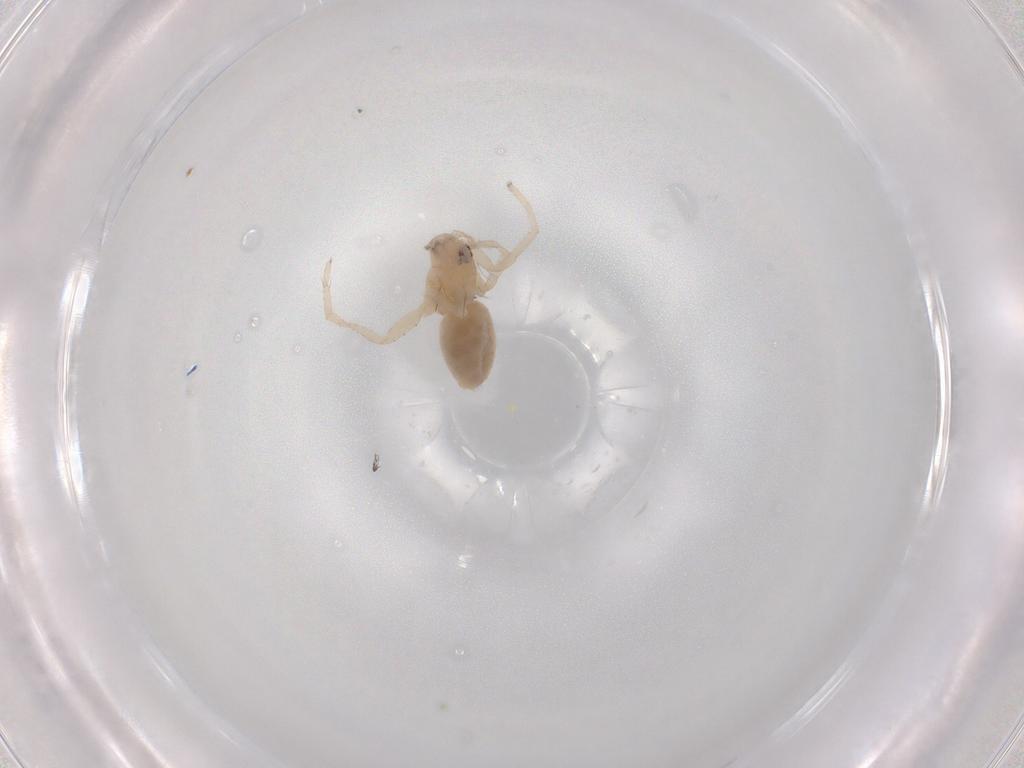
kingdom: Animalia
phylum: Arthropoda
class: Arachnida
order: Araneae
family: Anyphaenidae
